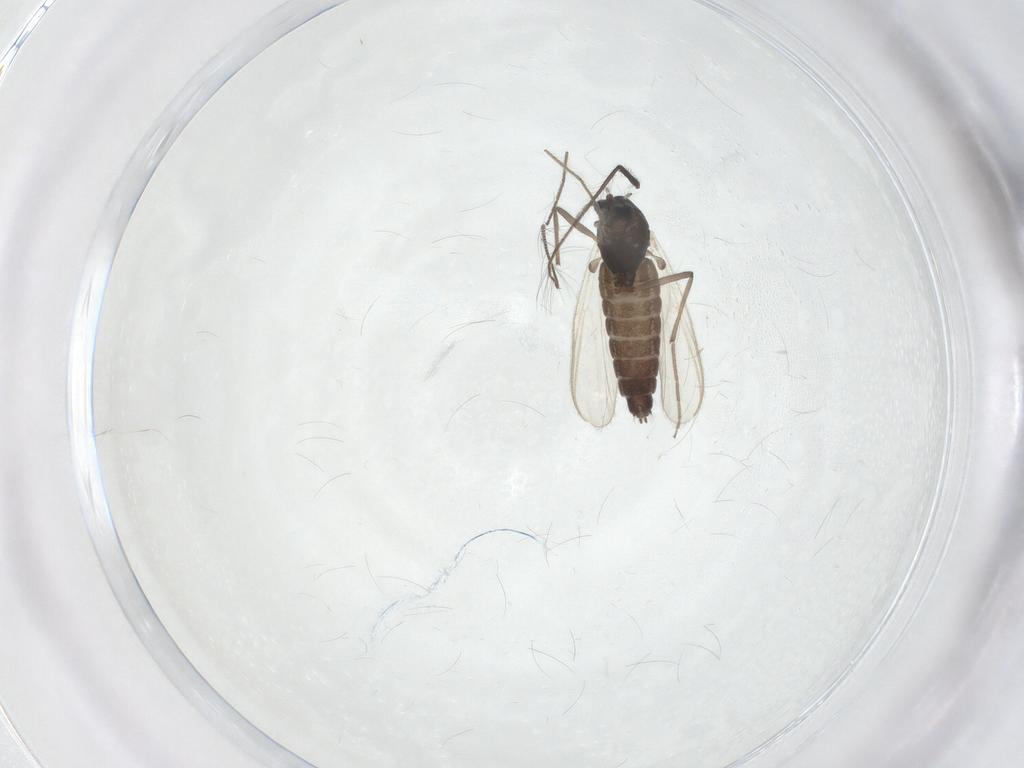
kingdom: Animalia
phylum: Arthropoda
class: Insecta
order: Diptera
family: Chironomidae
